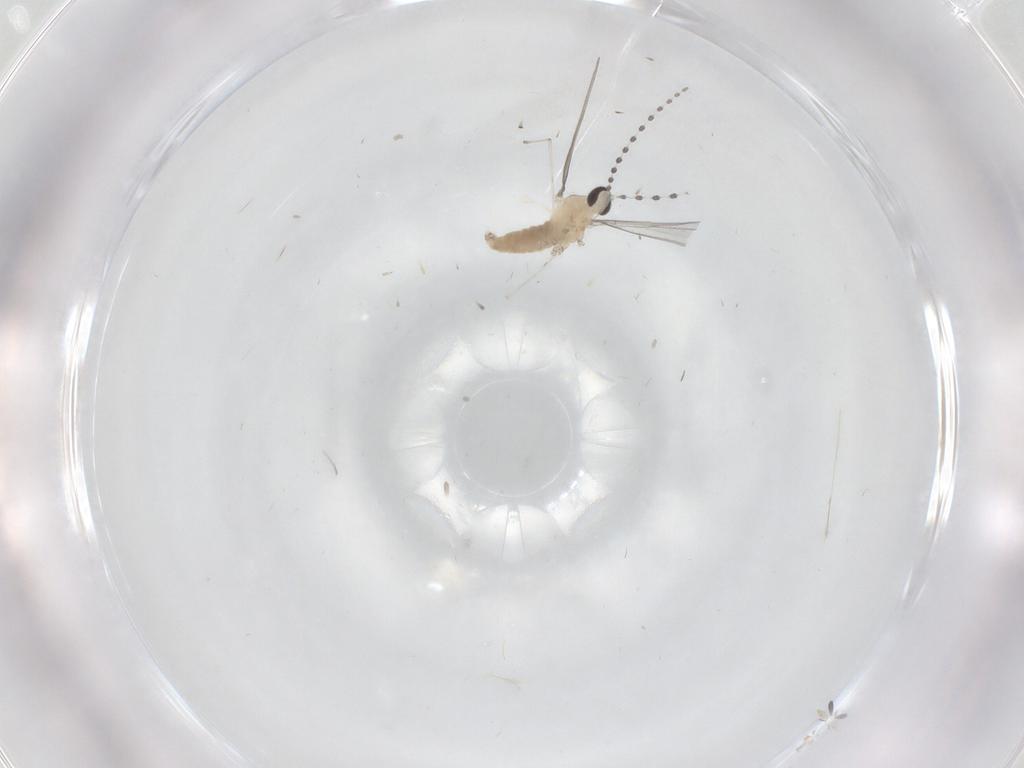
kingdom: Animalia
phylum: Arthropoda
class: Insecta
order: Diptera
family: Cecidomyiidae
